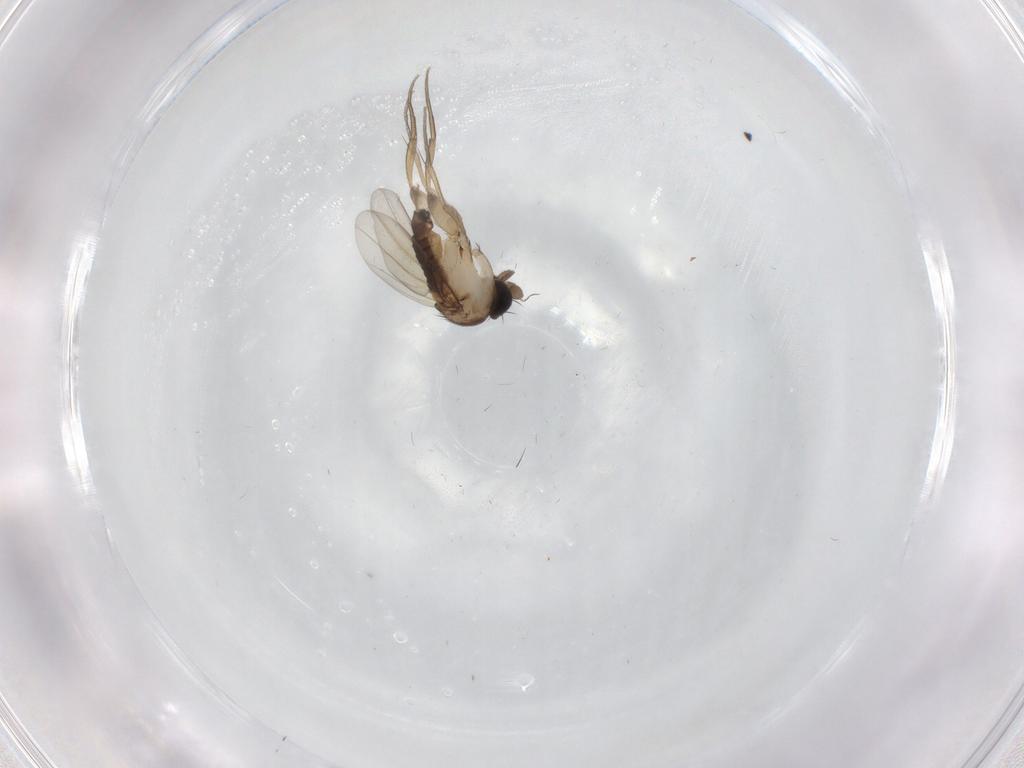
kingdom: Animalia
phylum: Arthropoda
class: Insecta
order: Diptera
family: Phoridae
